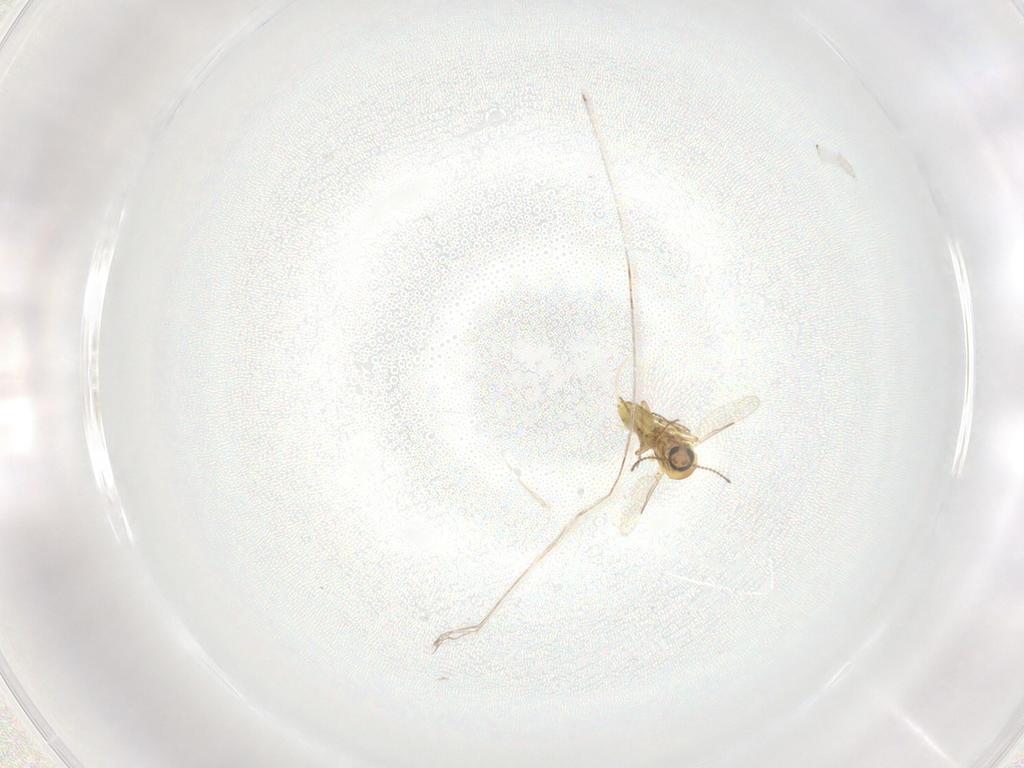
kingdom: Animalia
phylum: Arthropoda
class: Insecta
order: Diptera
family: Ceratopogonidae
